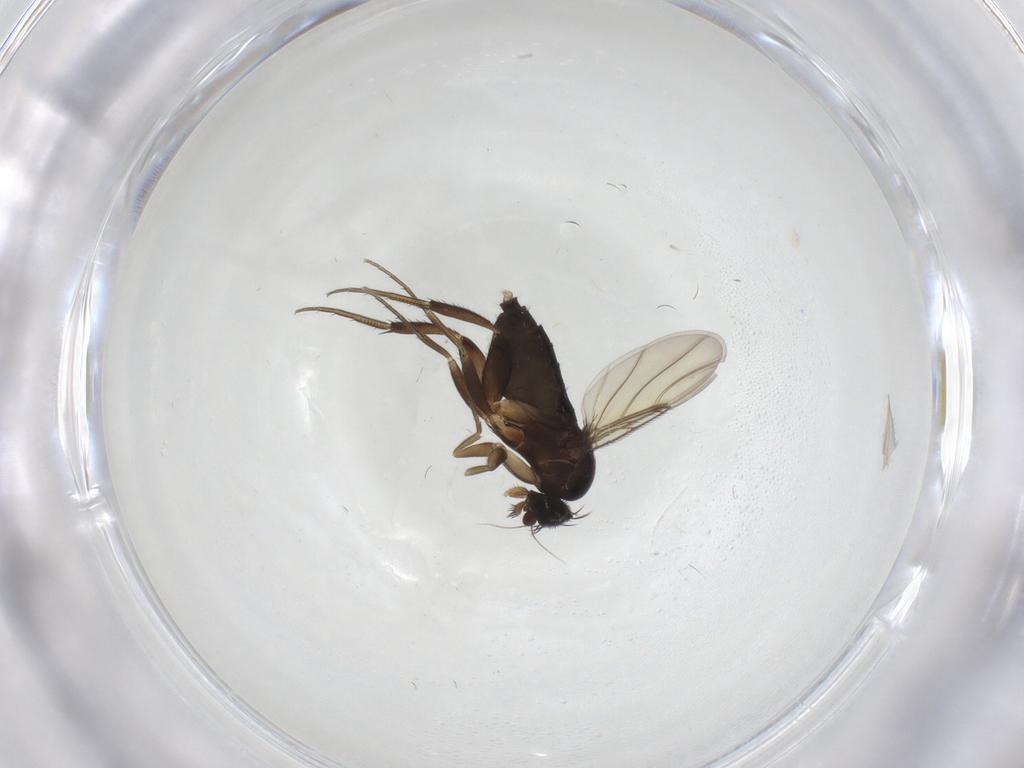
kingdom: Animalia
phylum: Arthropoda
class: Insecta
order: Diptera
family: Phoridae
